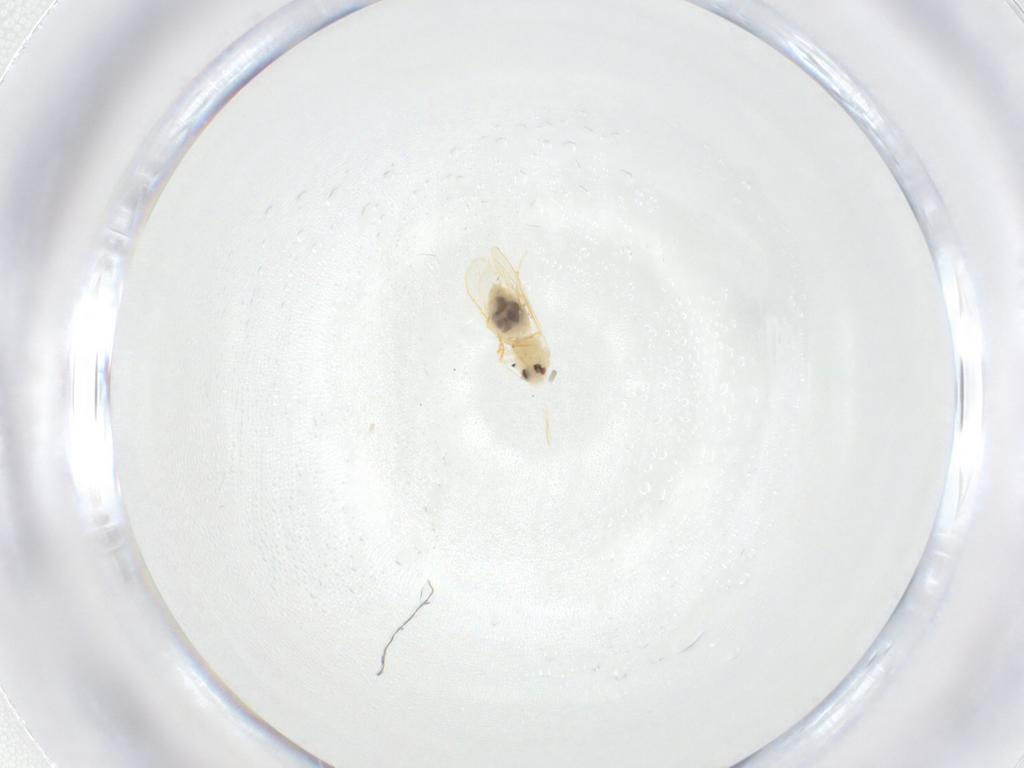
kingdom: Animalia
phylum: Arthropoda
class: Insecta
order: Hemiptera
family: Aleyrodidae
